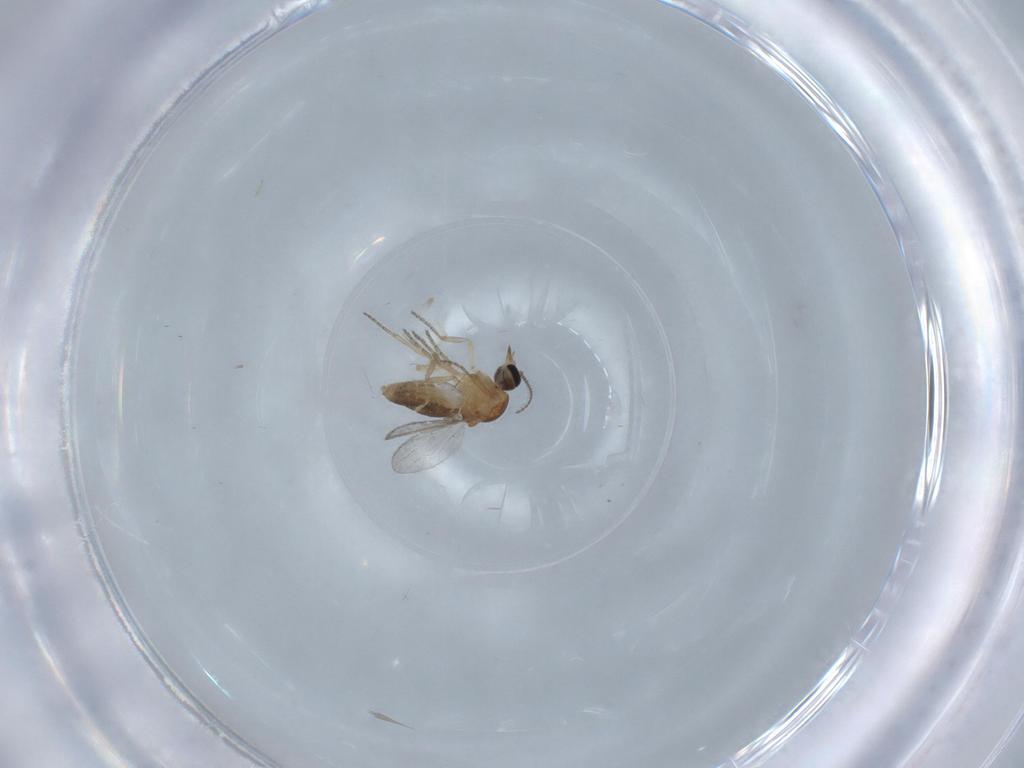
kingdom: Animalia
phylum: Arthropoda
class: Insecta
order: Diptera
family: Ceratopogonidae
